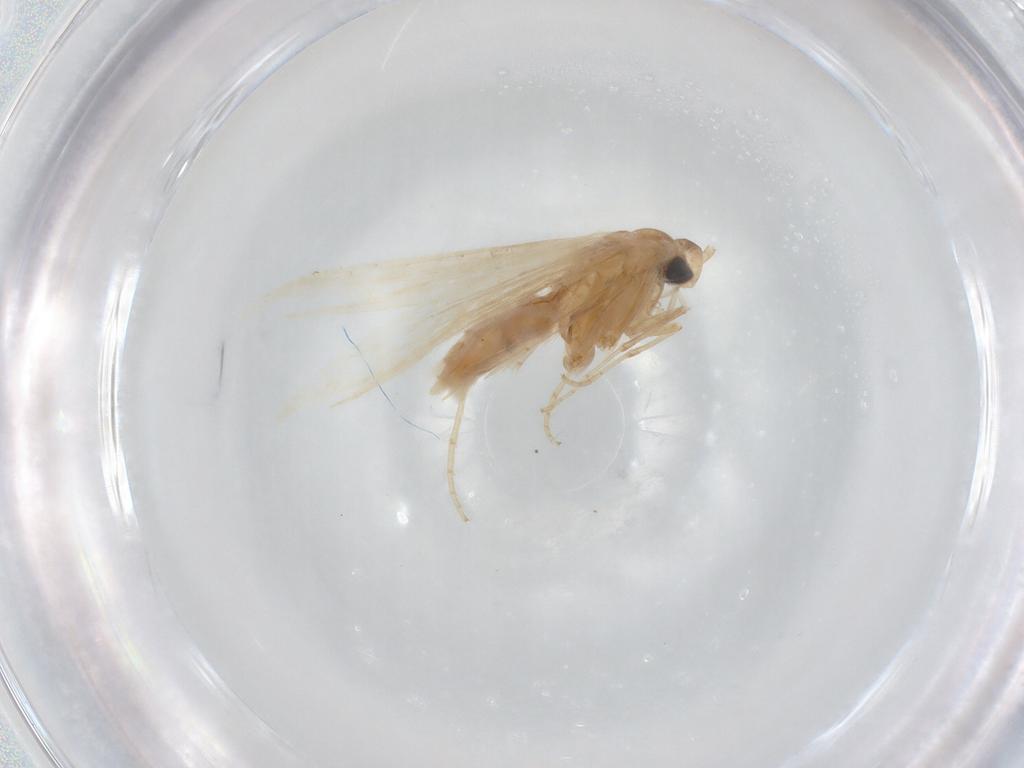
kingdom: Animalia
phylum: Arthropoda
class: Insecta
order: Lepidoptera
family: Coleophoridae
